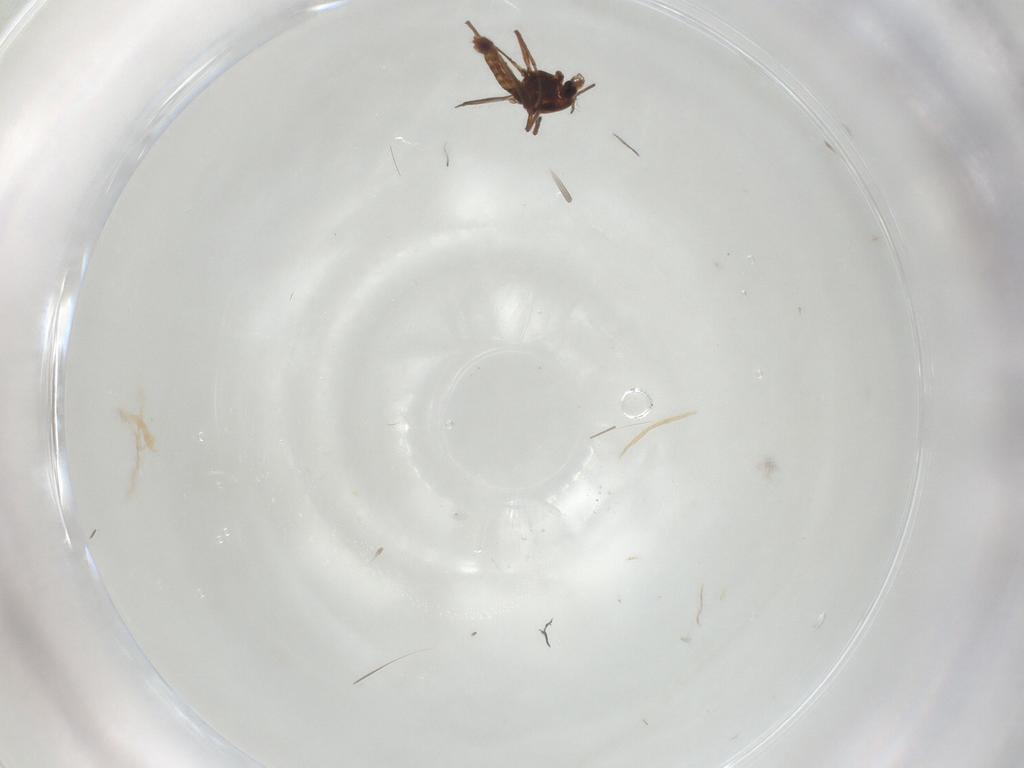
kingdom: Animalia
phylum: Arthropoda
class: Insecta
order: Diptera
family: Chironomidae
